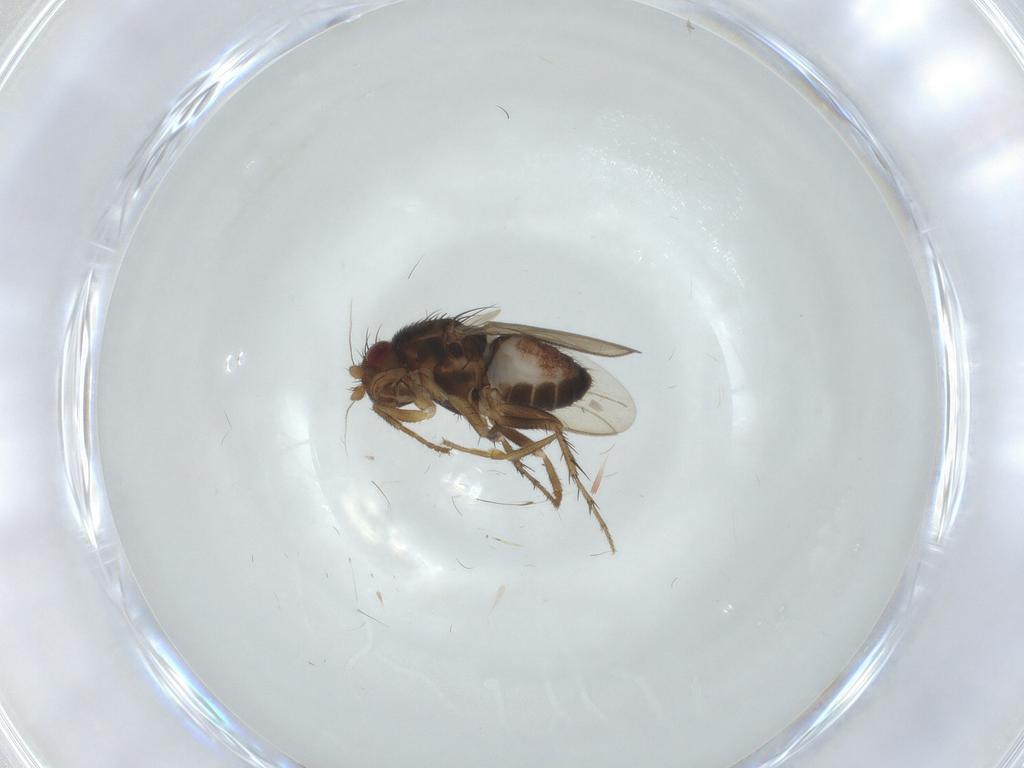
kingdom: Animalia
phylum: Arthropoda
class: Insecta
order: Diptera
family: Sphaeroceridae
